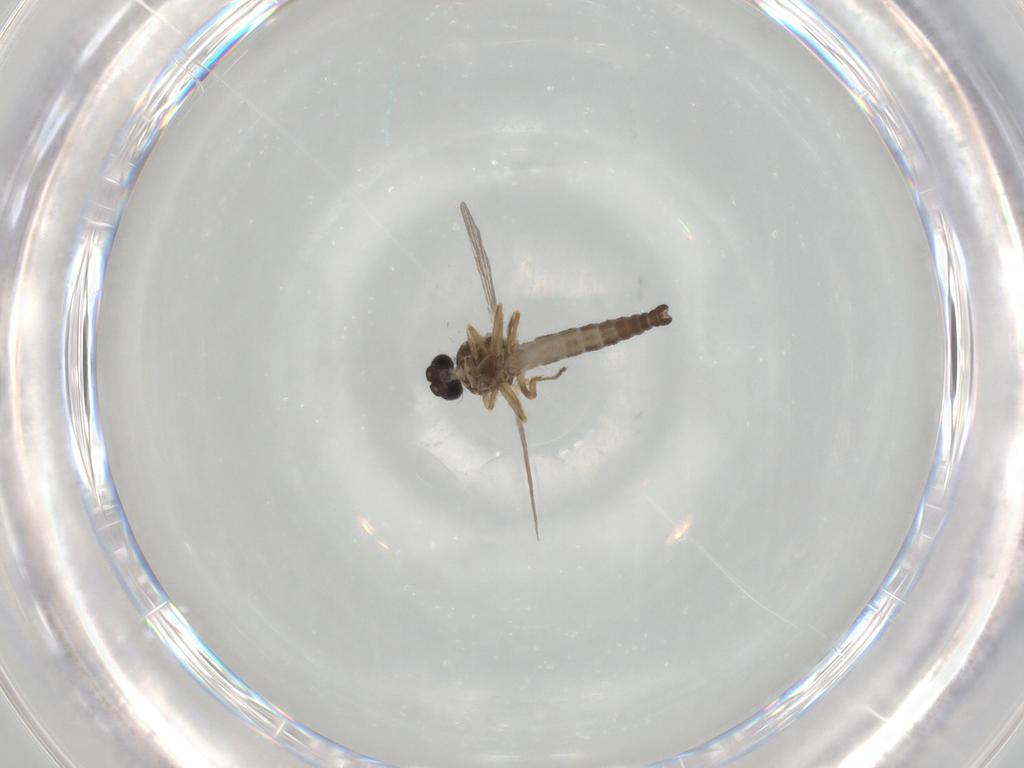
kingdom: Animalia
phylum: Arthropoda
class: Insecta
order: Diptera
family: Ceratopogonidae
